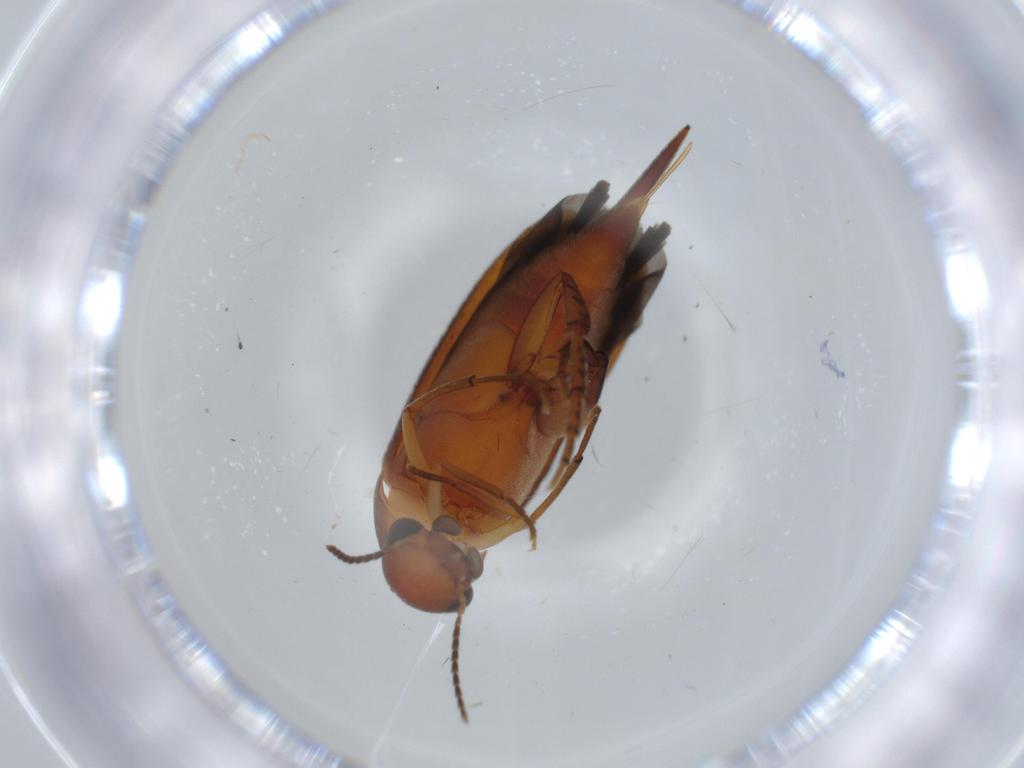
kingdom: Animalia
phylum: Arthropoda
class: Insecta
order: Coleoptera
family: Mordellidae
